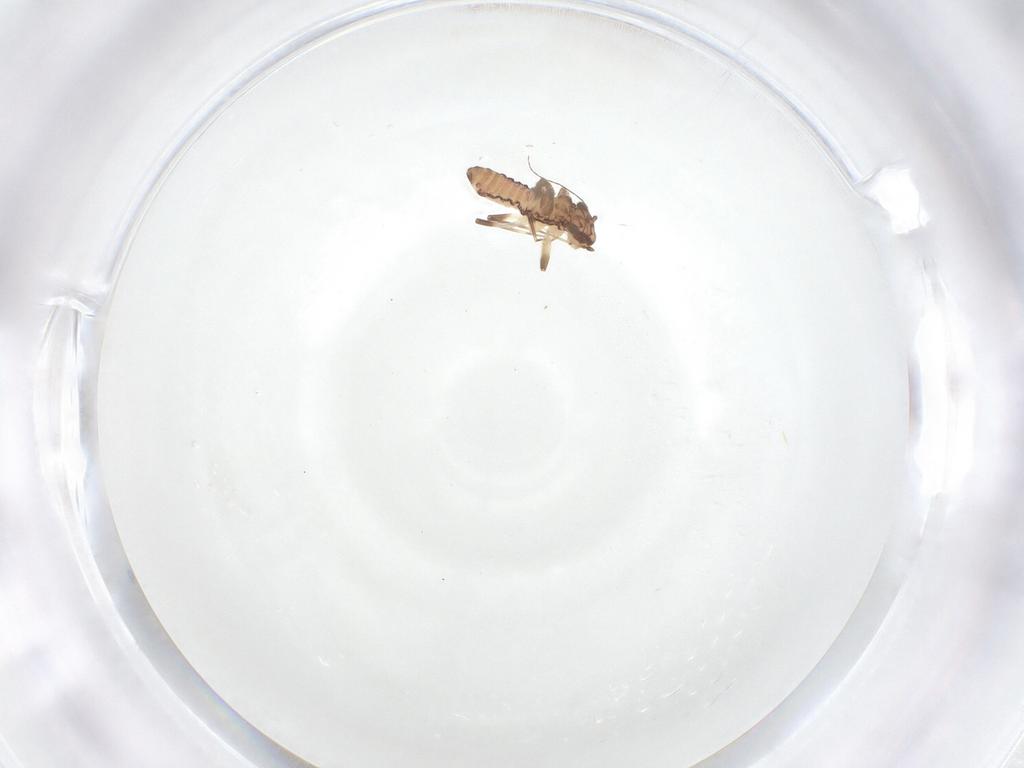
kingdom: Animalia
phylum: Arthropoda
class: Insecta
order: Psocodea
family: Lepidopsocidae
